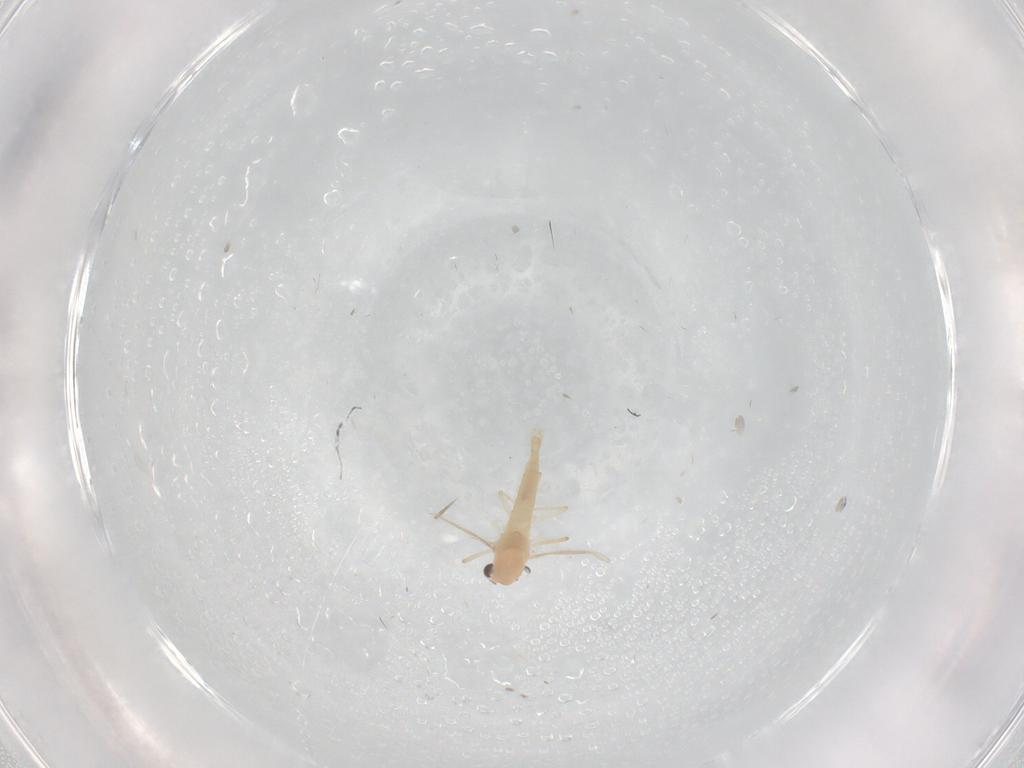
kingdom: Animalia
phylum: Arthropoda
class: Insecta
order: Diptera
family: Chironomidae
